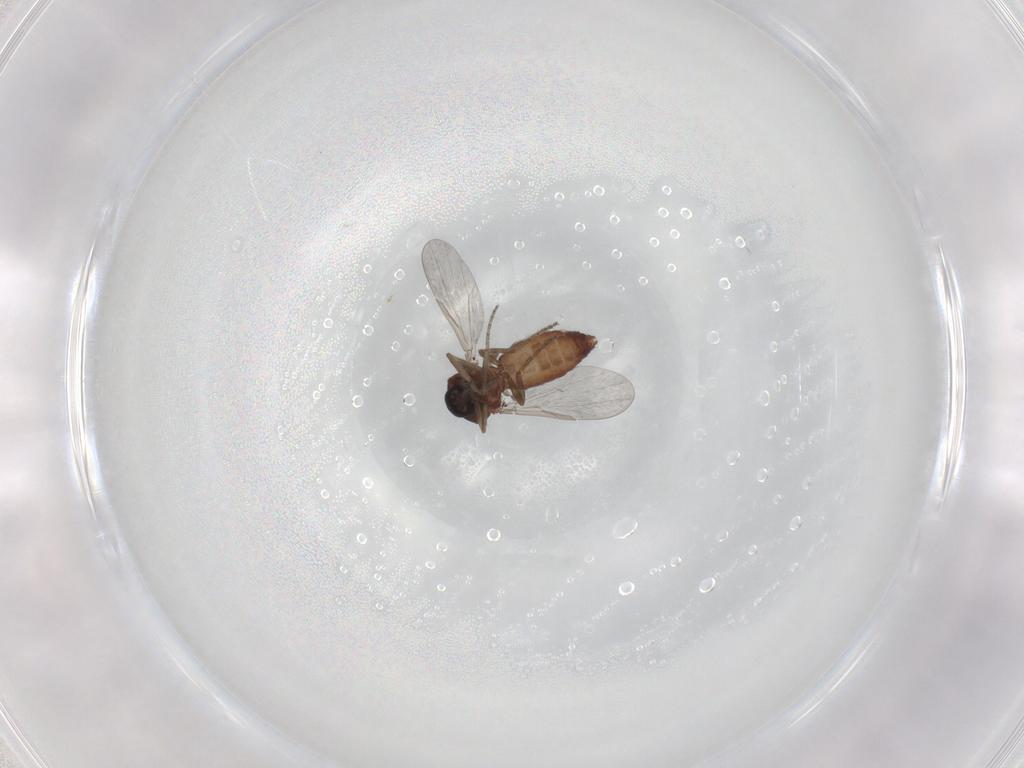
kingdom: Animalia
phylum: Arthropoda
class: Insecta
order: Diptera
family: Ceratopogonidae
